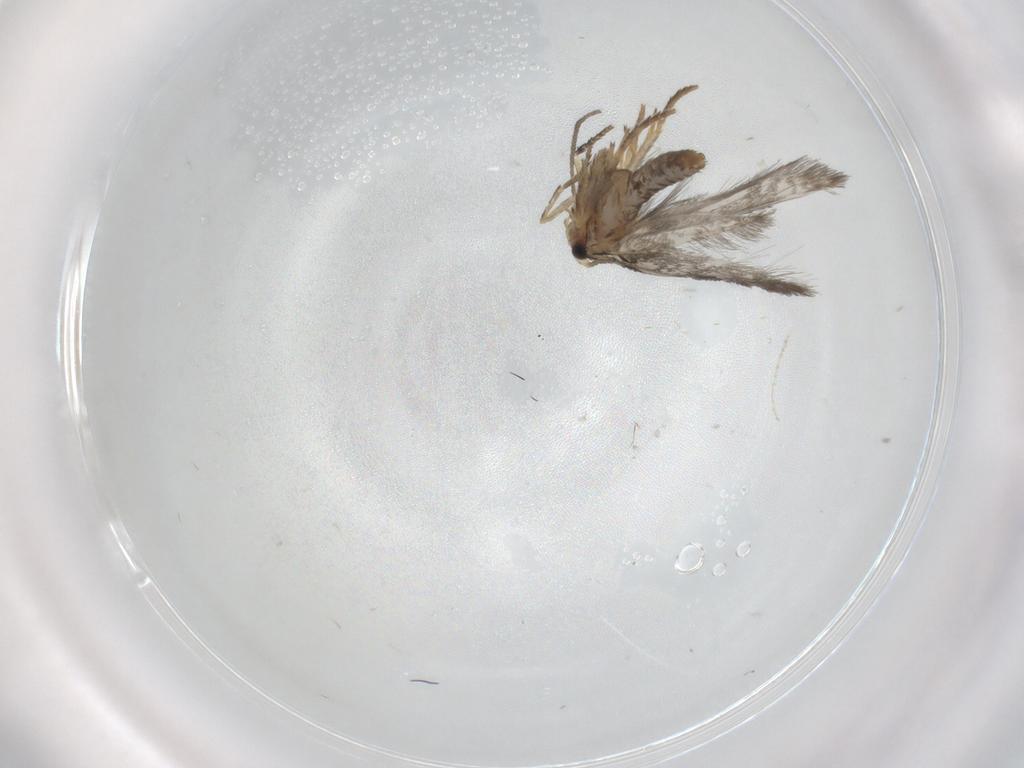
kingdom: Animalia
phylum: Arthropoda
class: Insecta
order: Lepidoptera
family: Nepticulidae
